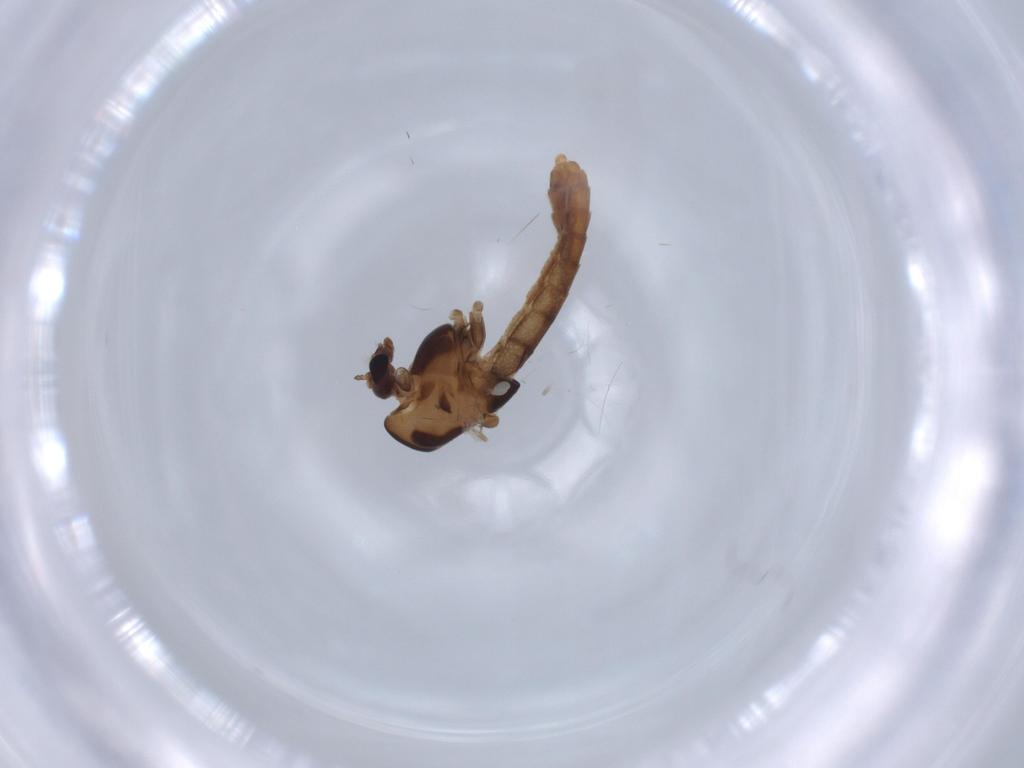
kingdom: Animalia
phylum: Arthropoda
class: Insecta
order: Diptera
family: Chironomidae
